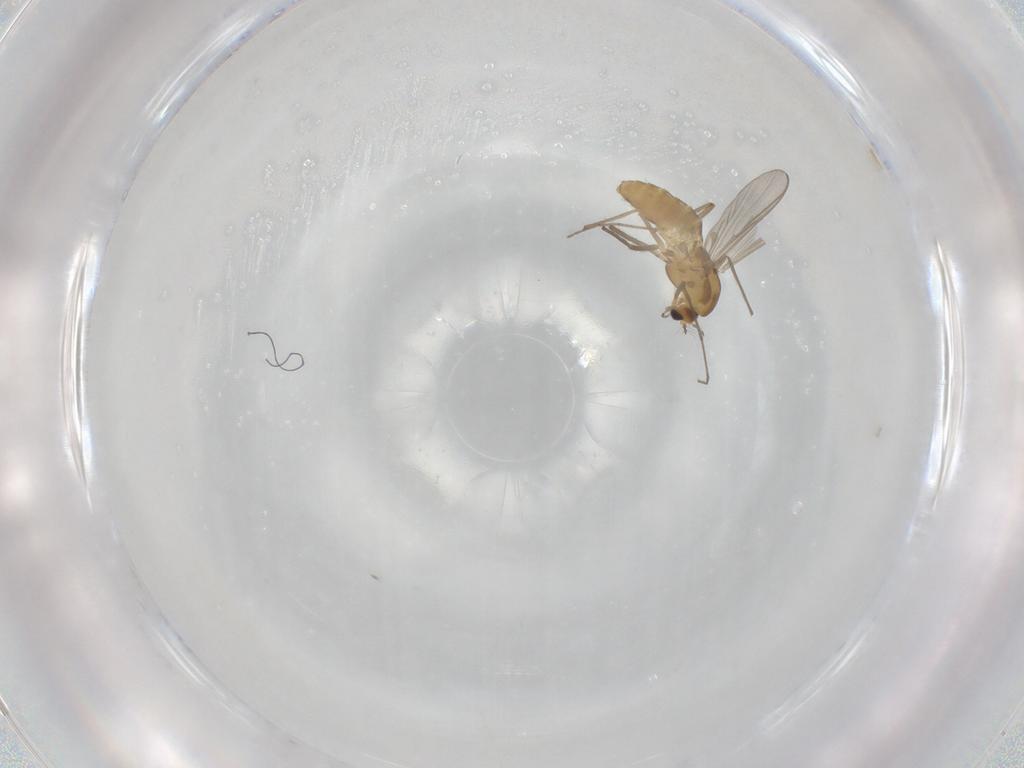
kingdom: Animalia
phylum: Arthropoda
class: Insecta
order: Diptera
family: Chironomidae
